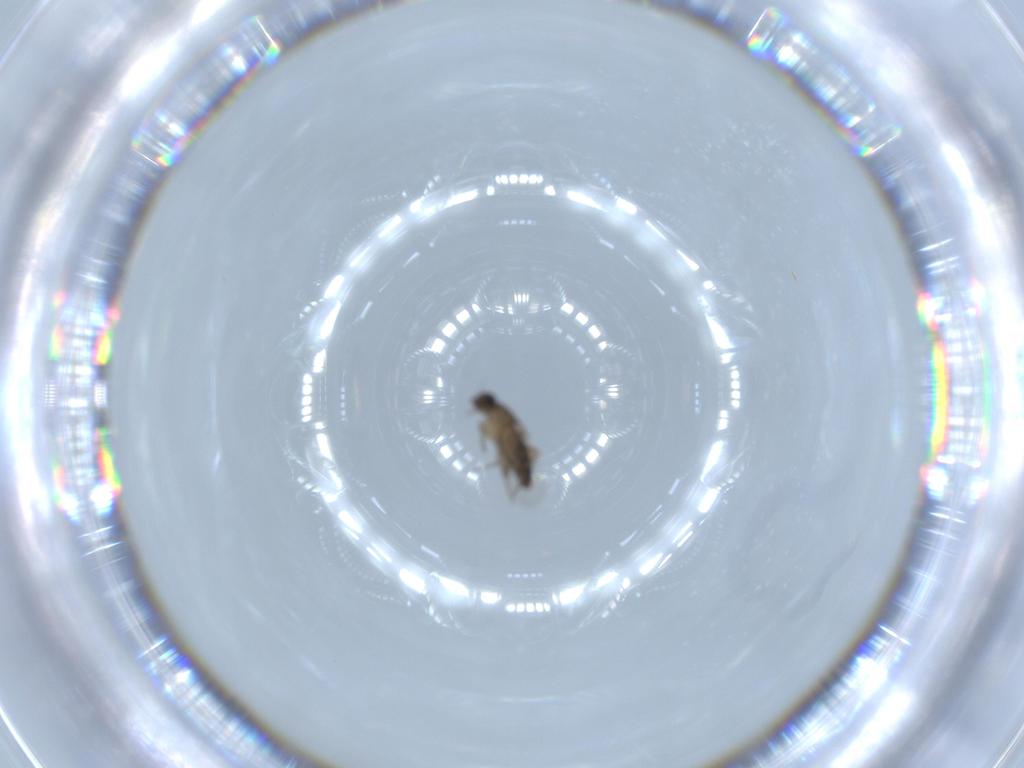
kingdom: Animalia
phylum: Arthropoda
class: Insecta
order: Diptera
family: Phoridae
